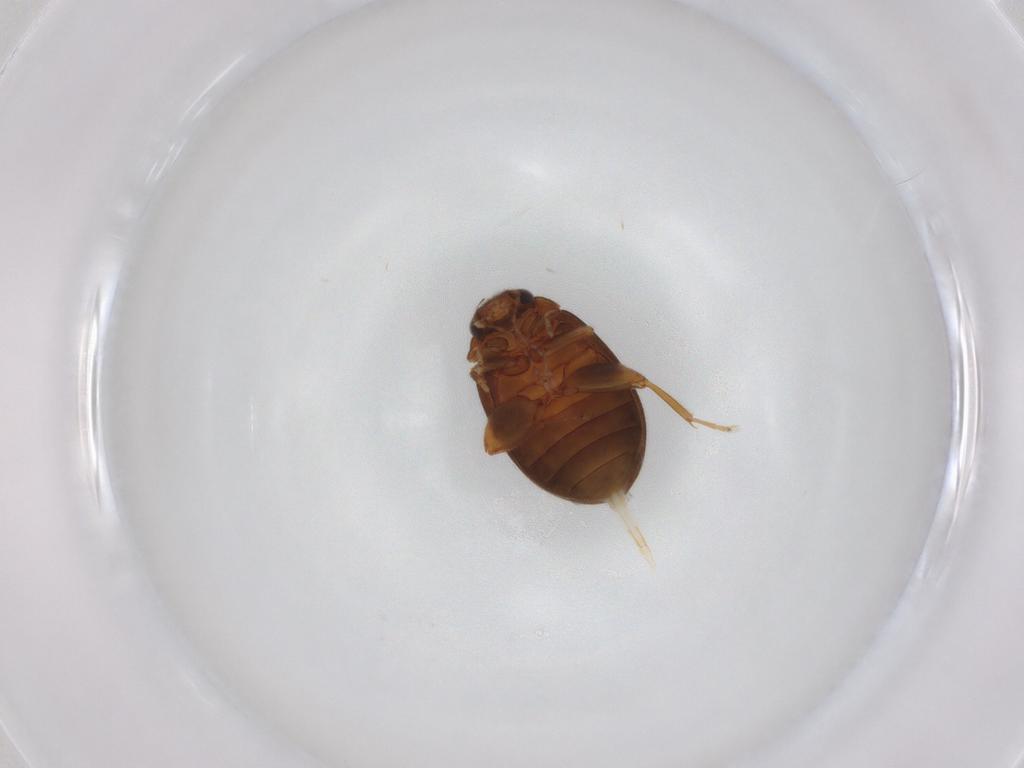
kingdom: Animalia
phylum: Arthropoda
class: Insecta
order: Coleoptera
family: Scirtidae
